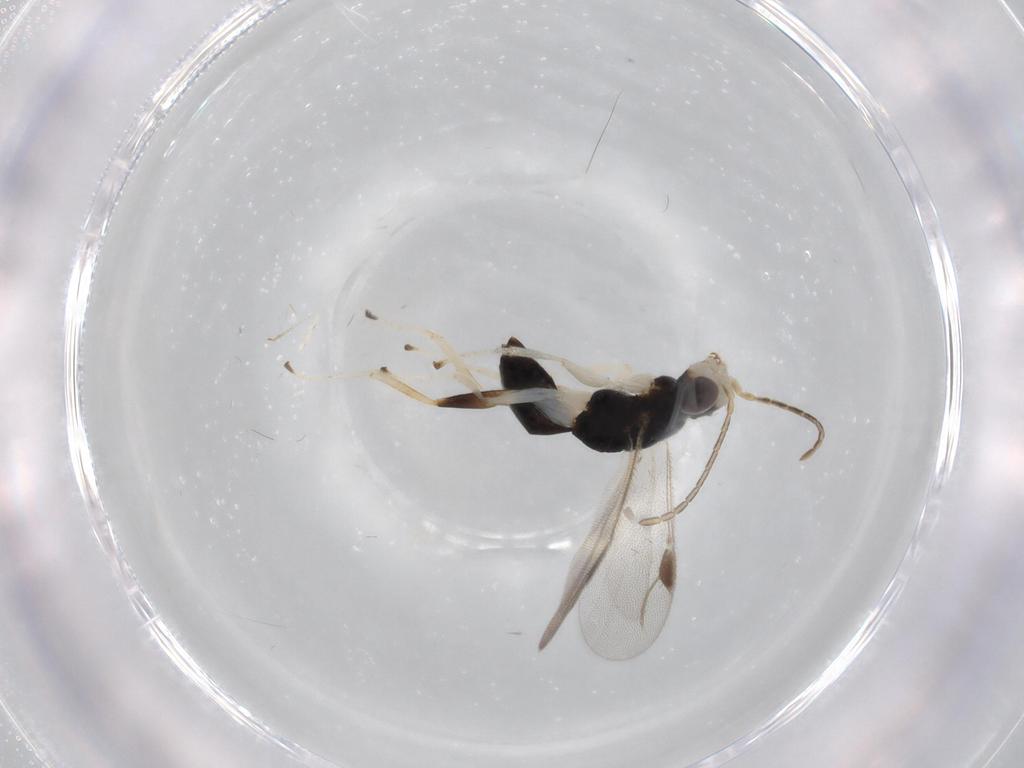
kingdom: Animalia
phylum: Arthropoda
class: Insecta
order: Hymenoptera
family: Dryinidae
